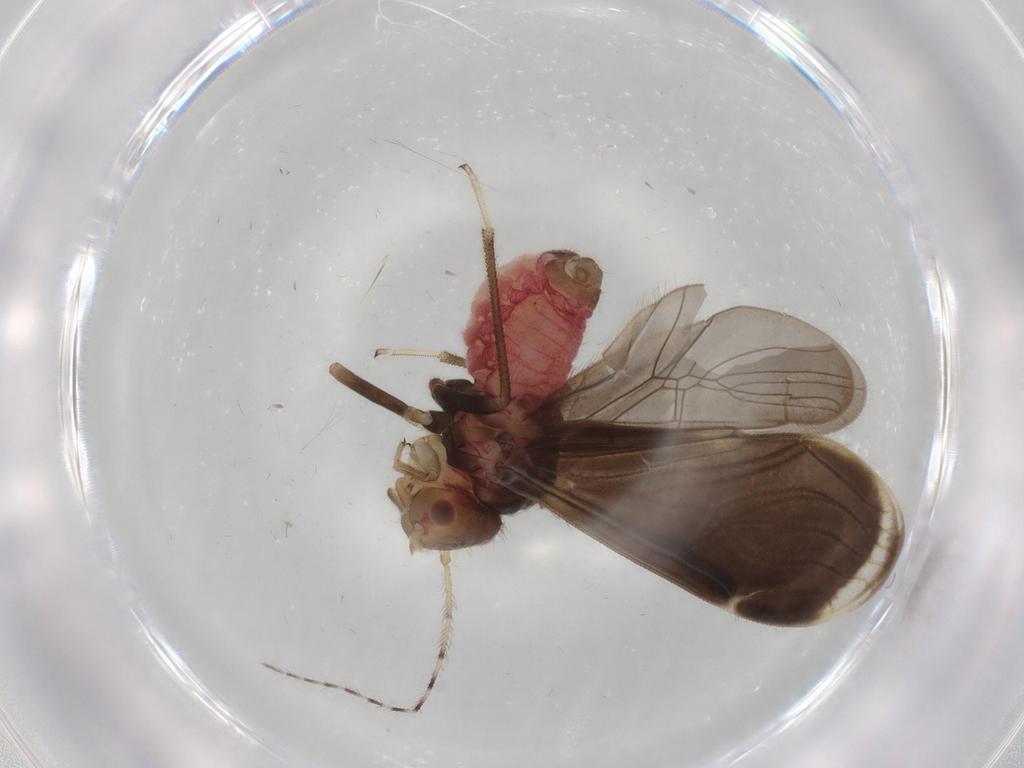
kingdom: Animalia
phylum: Arthropoda
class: Insecta
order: Psocodea
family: Amphipsocidae
